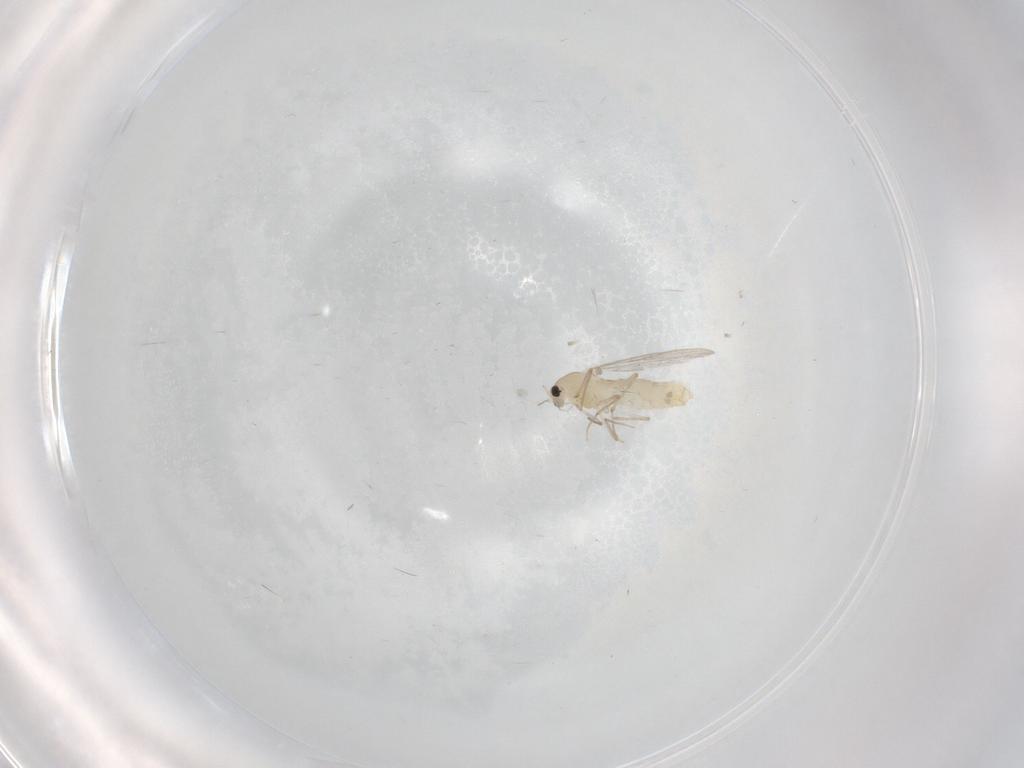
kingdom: Animalia
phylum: Arthropoda
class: Insecta
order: Diptera
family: Chironomidae
